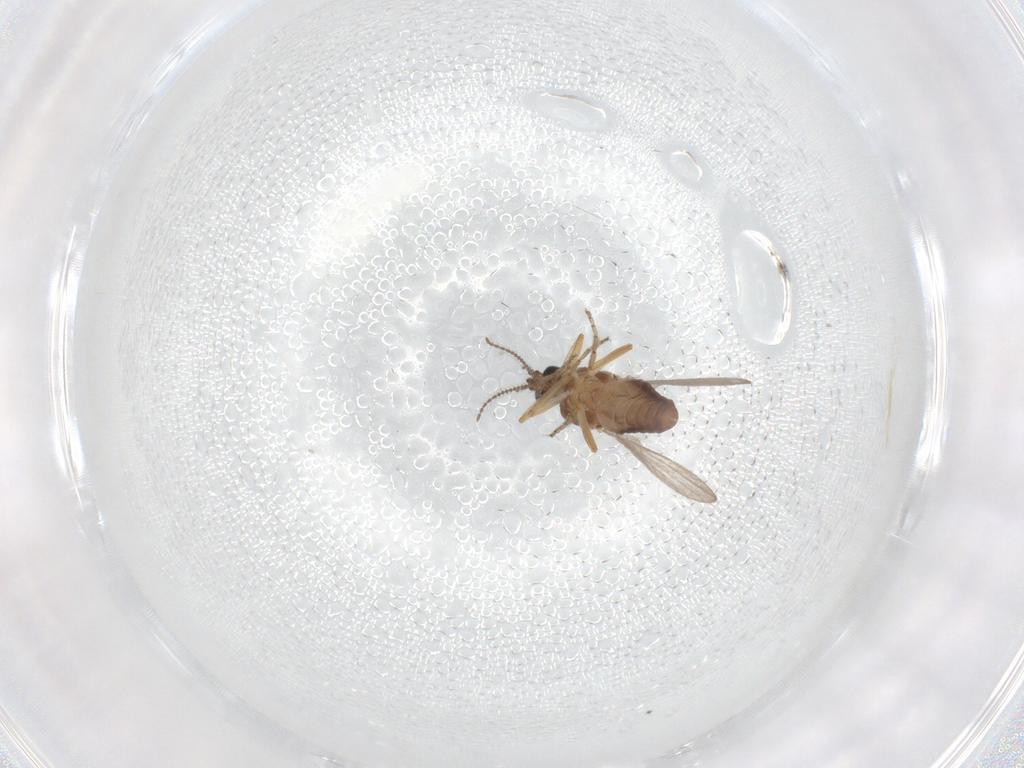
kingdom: Animalia
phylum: Arthropoda
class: Insecta
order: Diptera
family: Ceratopogonidae
